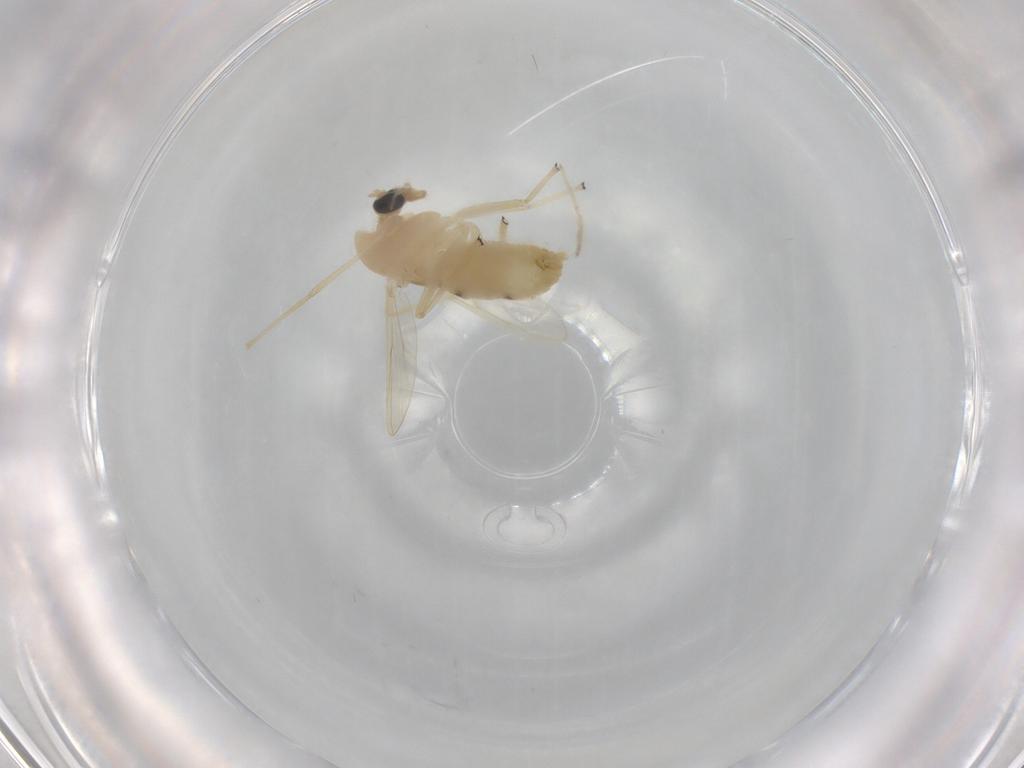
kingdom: Animalia
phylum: Arthropoda
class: Insecta
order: Diptera
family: Chironomidae
